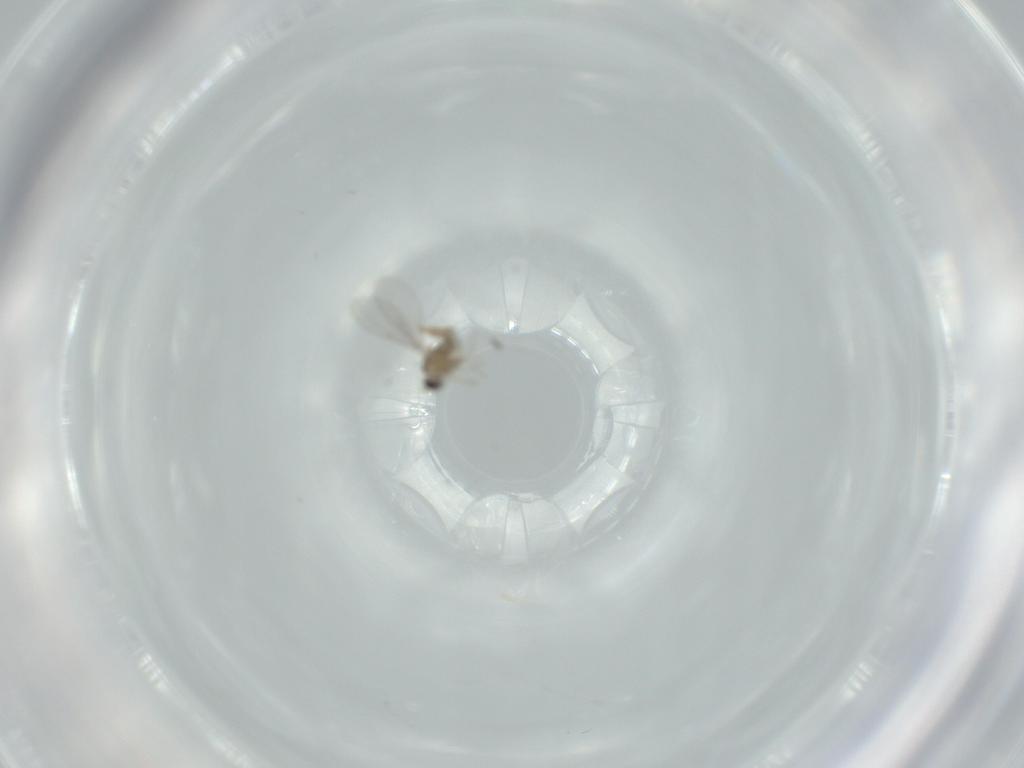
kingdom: Animalia
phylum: Arthropoda
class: Insecta
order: Diptera
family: Cecidomyiidae
